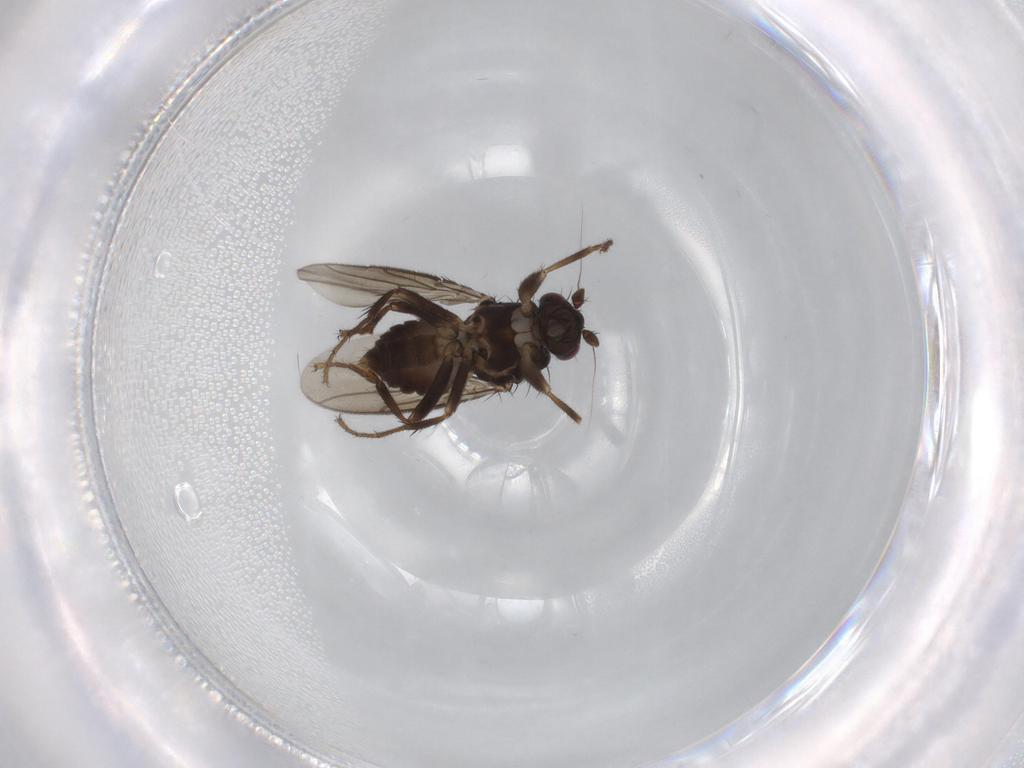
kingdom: Animalia
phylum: Arthropoda
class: Insecta
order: Diptera
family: Sphaeroceridae
